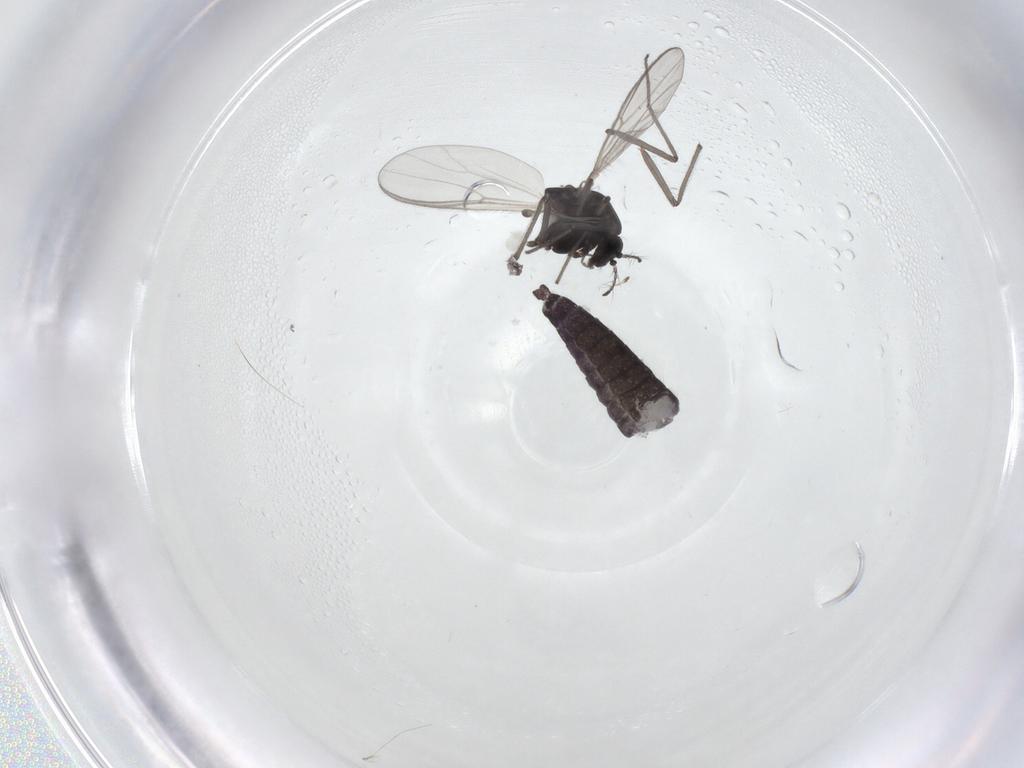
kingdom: Animalia
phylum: Arthropoda
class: Insecta
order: Diptera
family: Chironomidae
